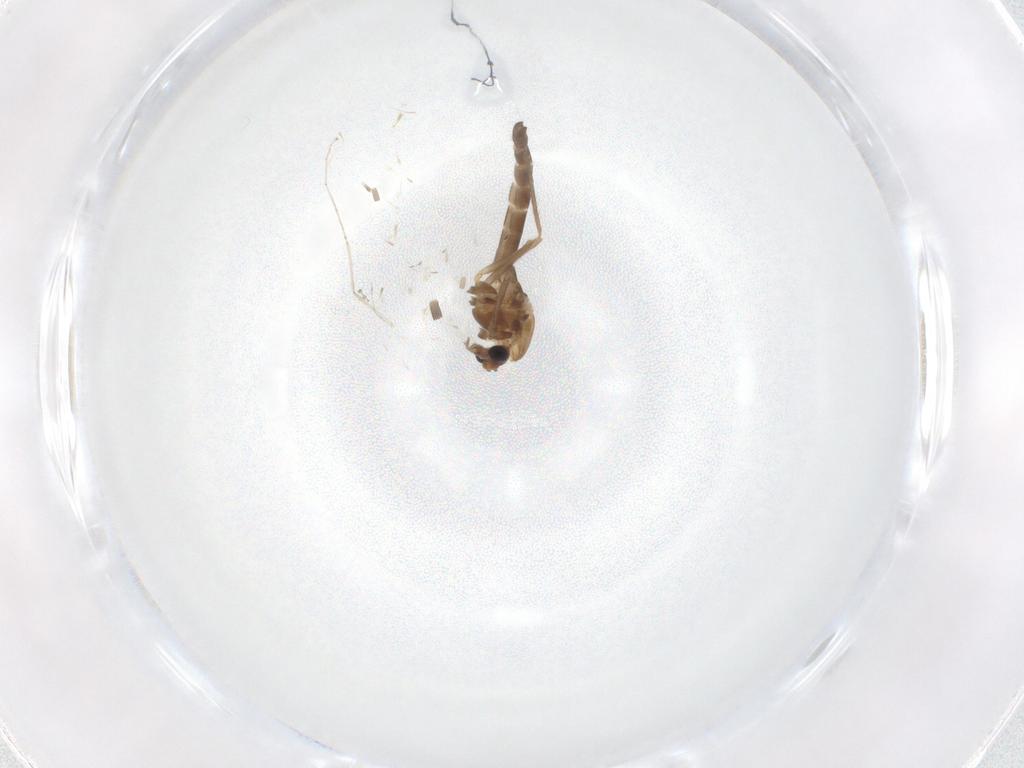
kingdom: Animalia
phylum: Arthropoda
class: Insecta
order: Diptera
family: Chironomidae
